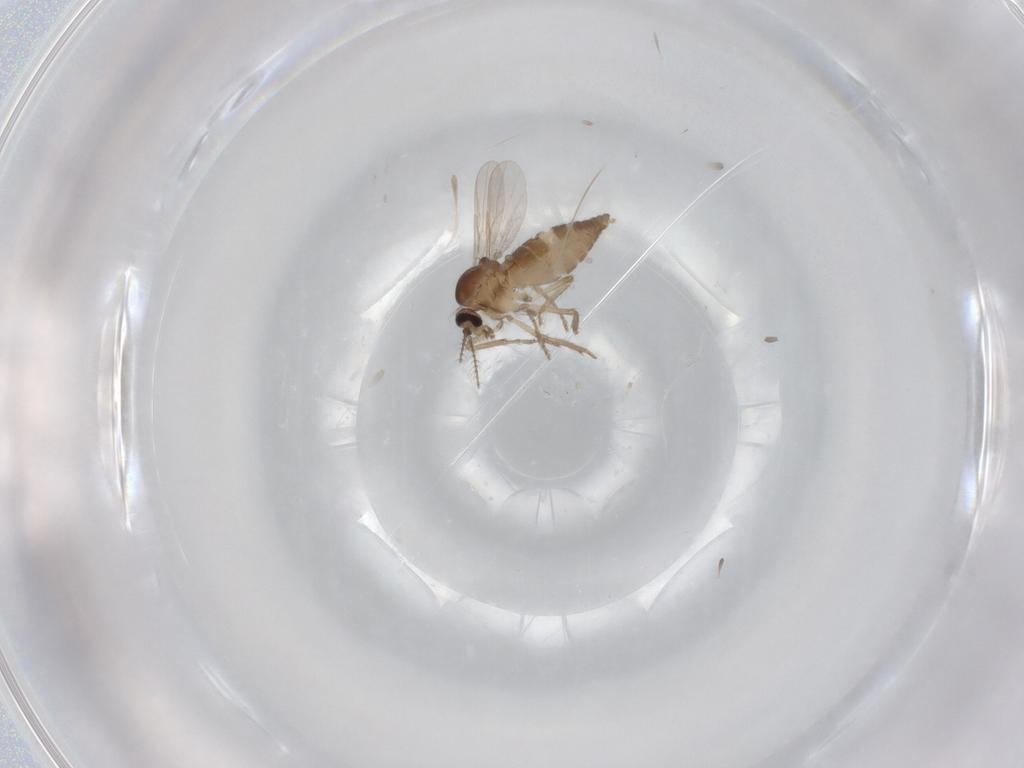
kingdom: Animalia
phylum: Arthropoda
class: Insecta
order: Diptera
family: Ceratopogonidae
